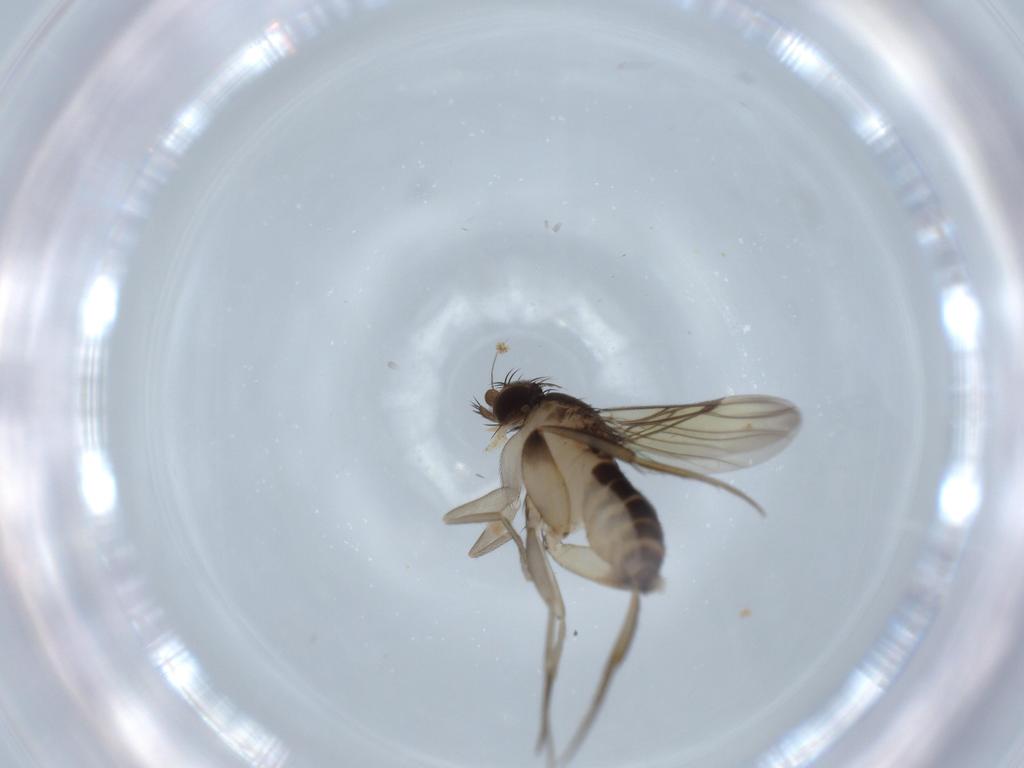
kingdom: Animalia
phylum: Arthropoda
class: Insecta
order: Diptera
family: Phoridae
